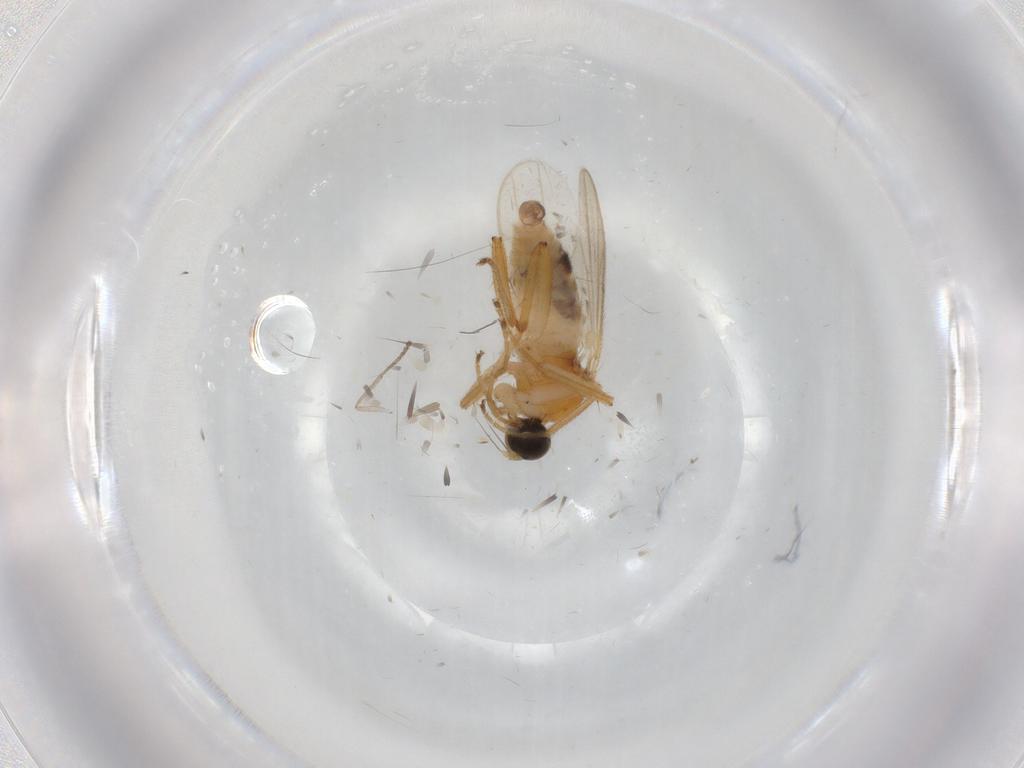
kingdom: Animalia
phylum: Arthropoda
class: Insecta
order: Diptera
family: Hybotidae
